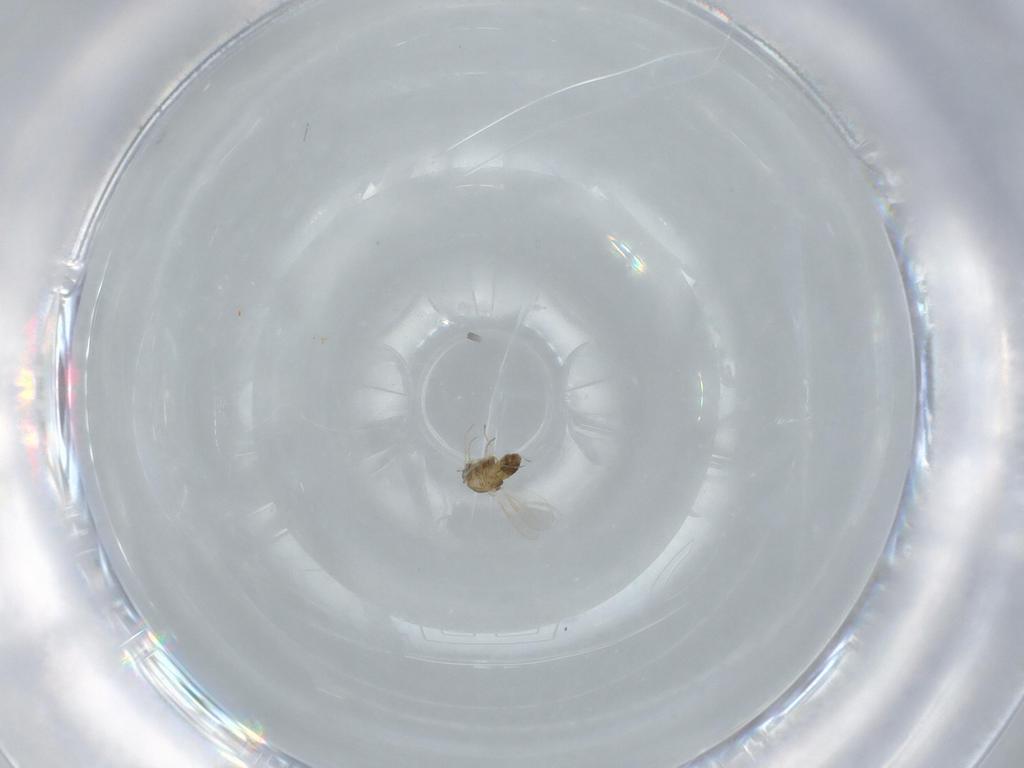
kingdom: Animalia
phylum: Arthropoda
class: Insecta
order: Diptera
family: Chironomidae
